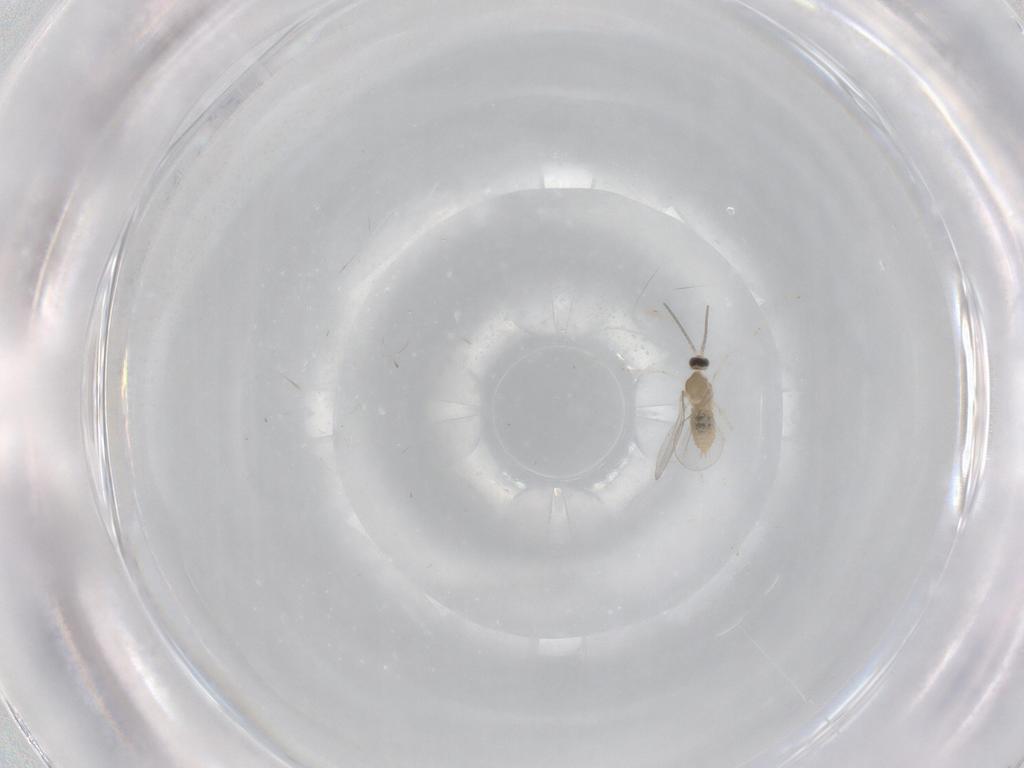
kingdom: Animalia
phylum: Arthropoda
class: Insecta
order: Diptera
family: Cecidomyiidae
